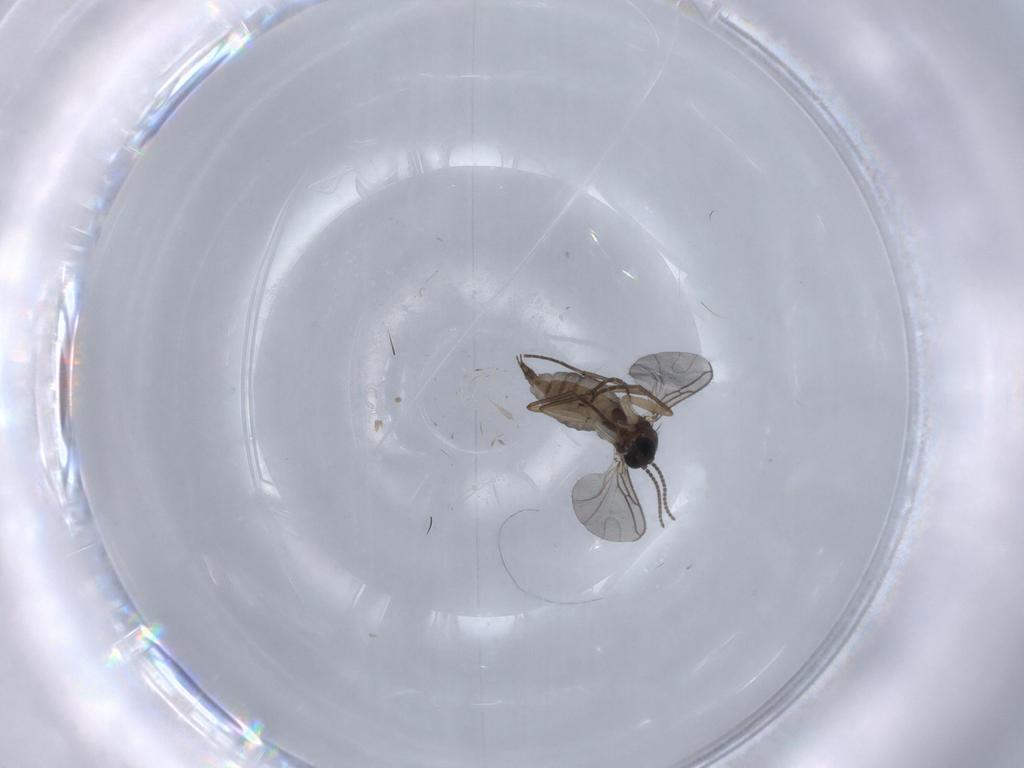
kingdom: Animalia
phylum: Arthropoda
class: Insecta
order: Diptera
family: Sciaridae
